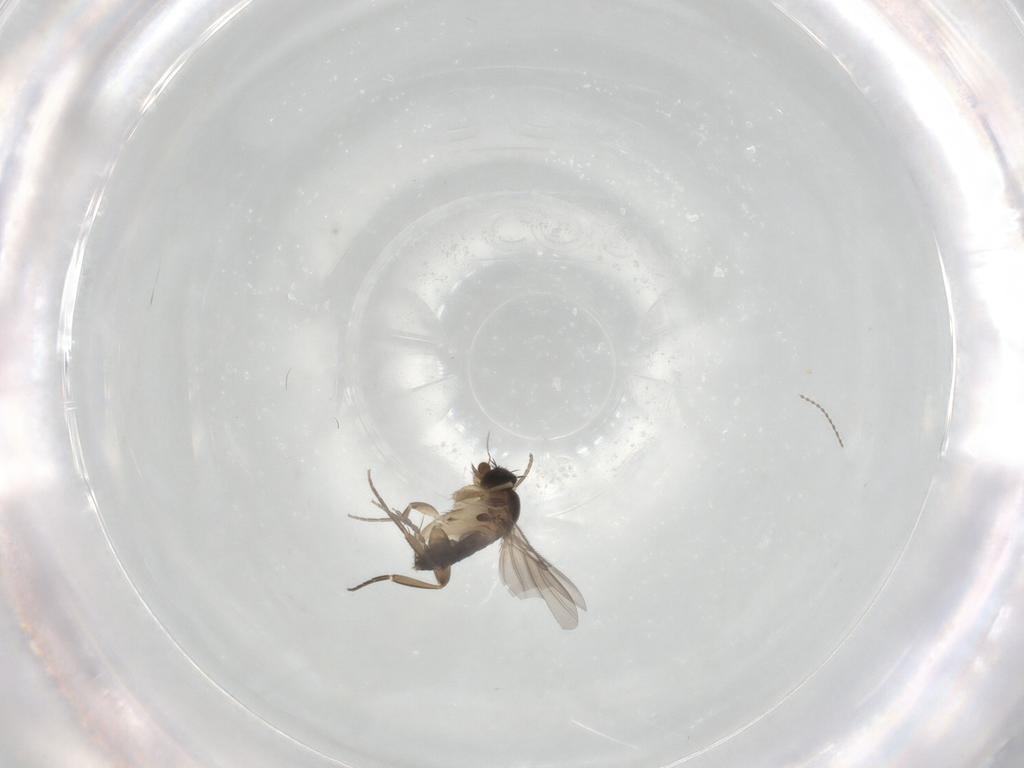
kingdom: Animalia
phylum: Arthropoda
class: Insecta
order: Diptera
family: Phoridae
